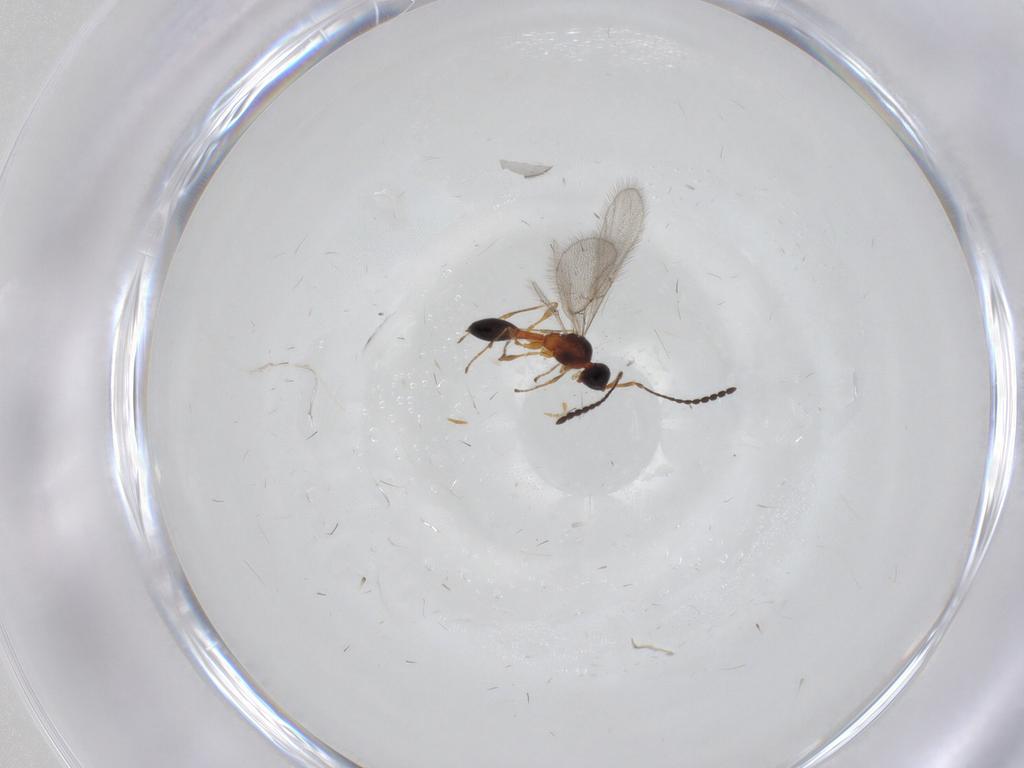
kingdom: Animalia
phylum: Arthropoda
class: Insecta
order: Hymenoptera
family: Diapriidae
